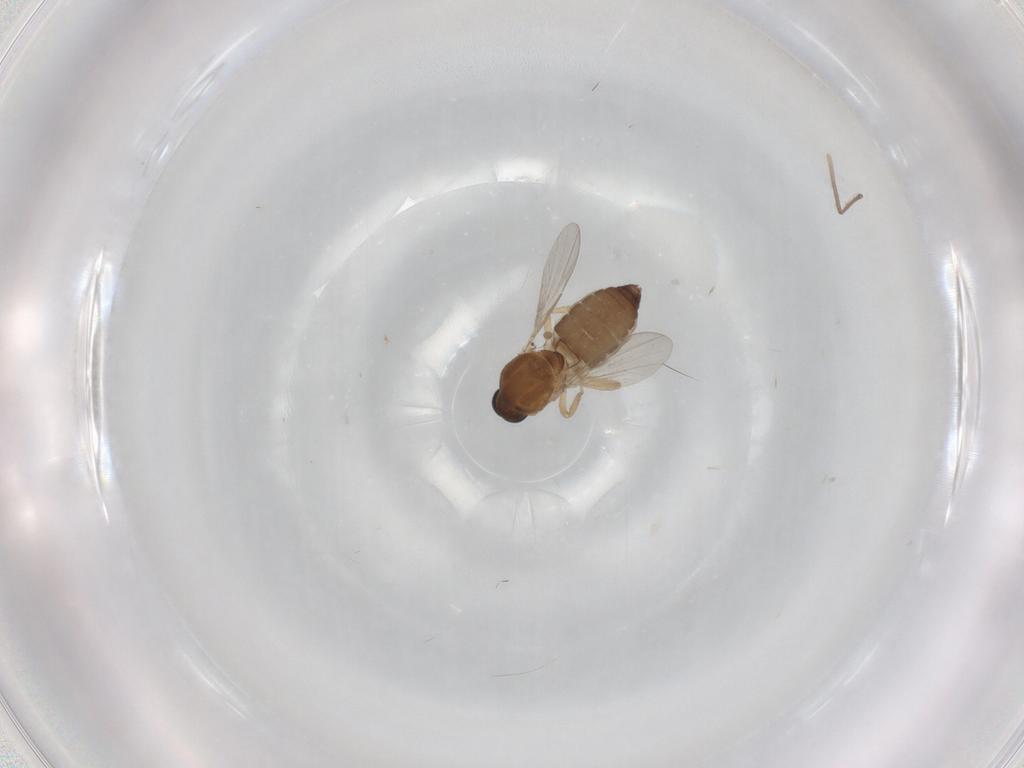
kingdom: Animalia
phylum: Arthropoda
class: Insecta
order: Diptera
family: Ceratopogonidae
